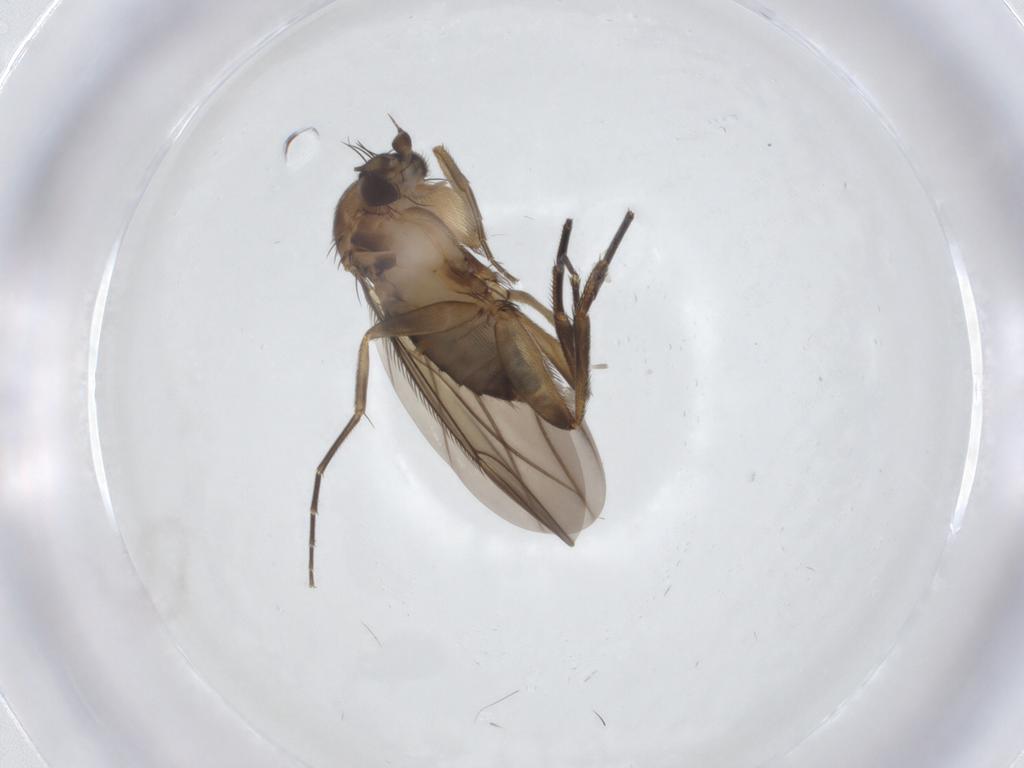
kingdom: Animalia
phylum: Arthropoda
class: Insecta
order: Diptera
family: Phoridae
